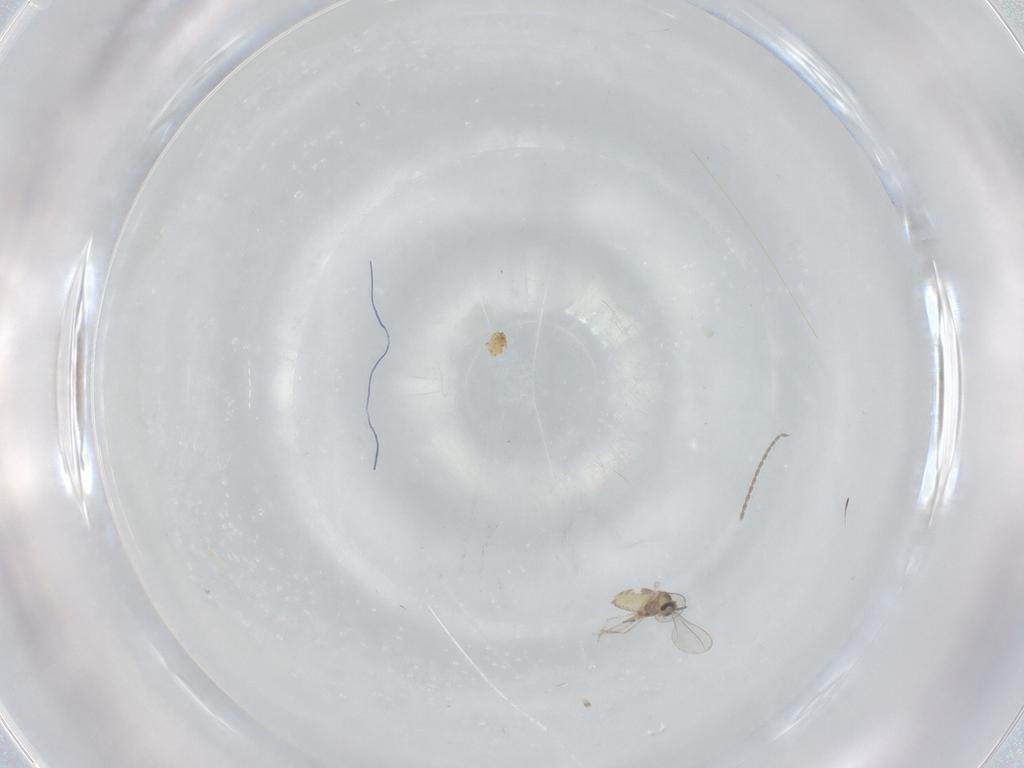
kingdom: Animalia
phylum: Arthropoda
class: Insecta
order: Diptera
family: Cecidomyiidae
